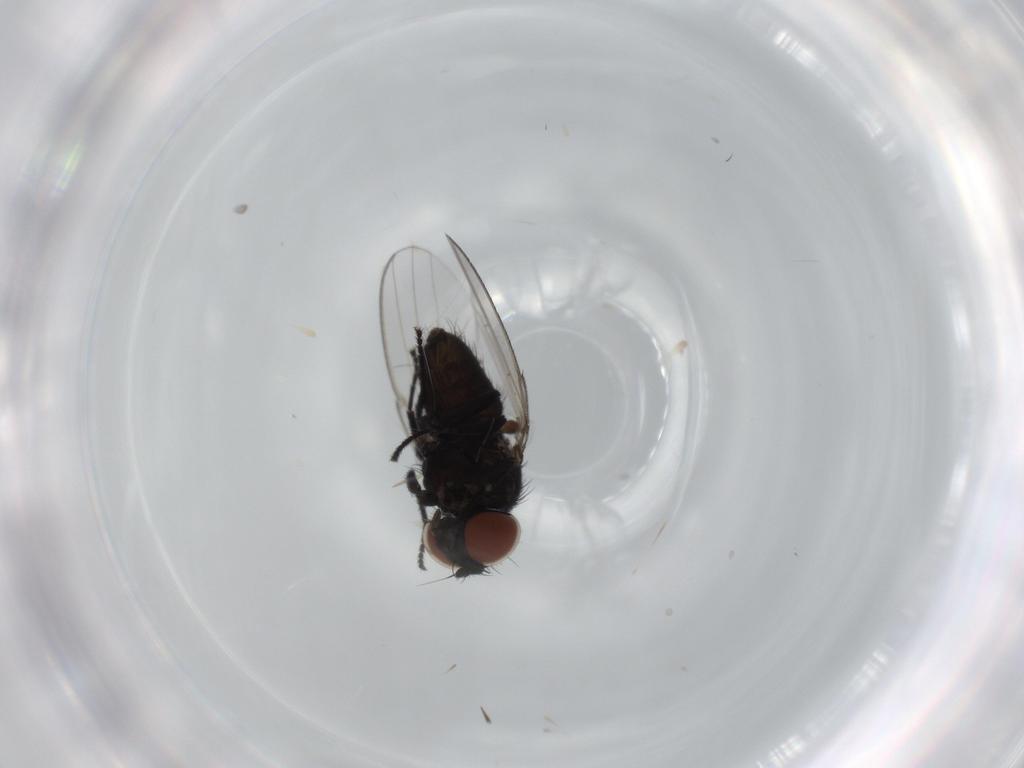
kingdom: Animalia
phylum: Arthropoda
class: Insecta
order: Diptera
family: Milichiidae
